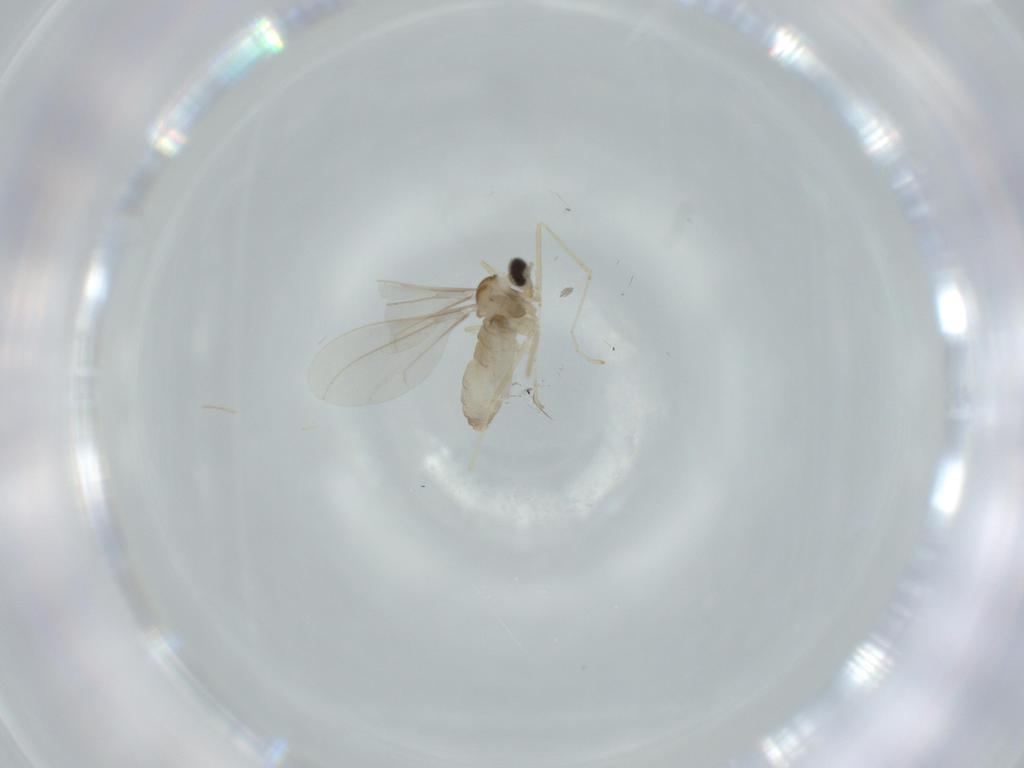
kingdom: Animalia
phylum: Arthropoda
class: Insecta
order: Diptera
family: Cecidomyiidae
